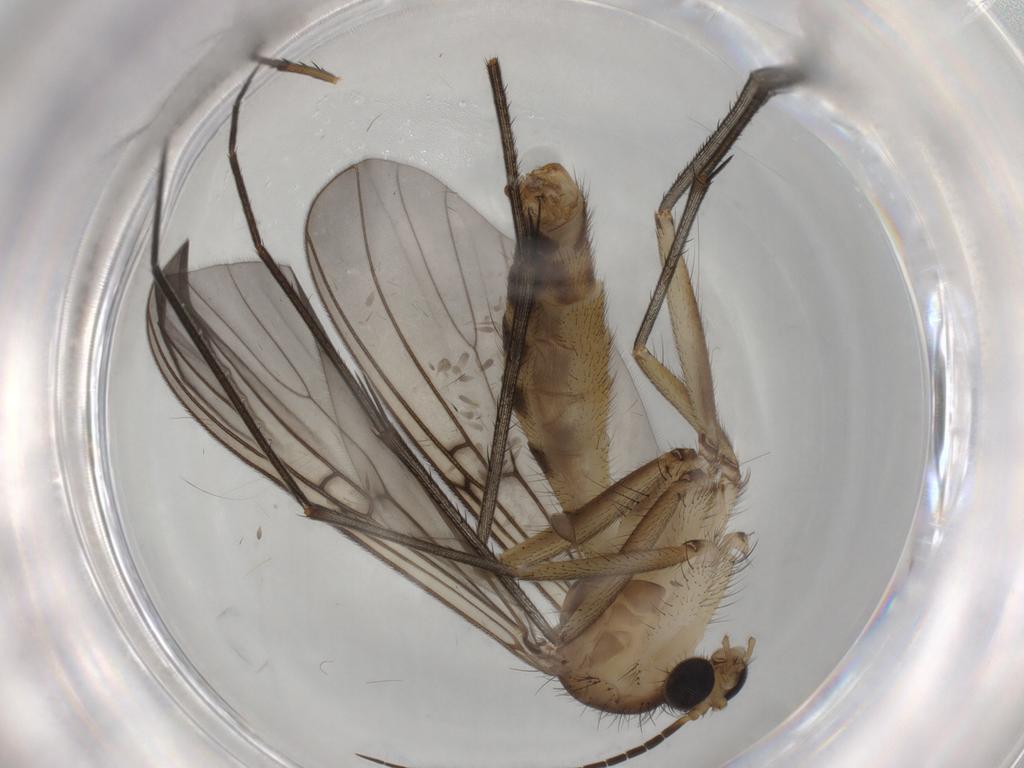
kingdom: Animalia
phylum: Arthropoda
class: Insecta
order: Diptera
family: Mycetophilidae
